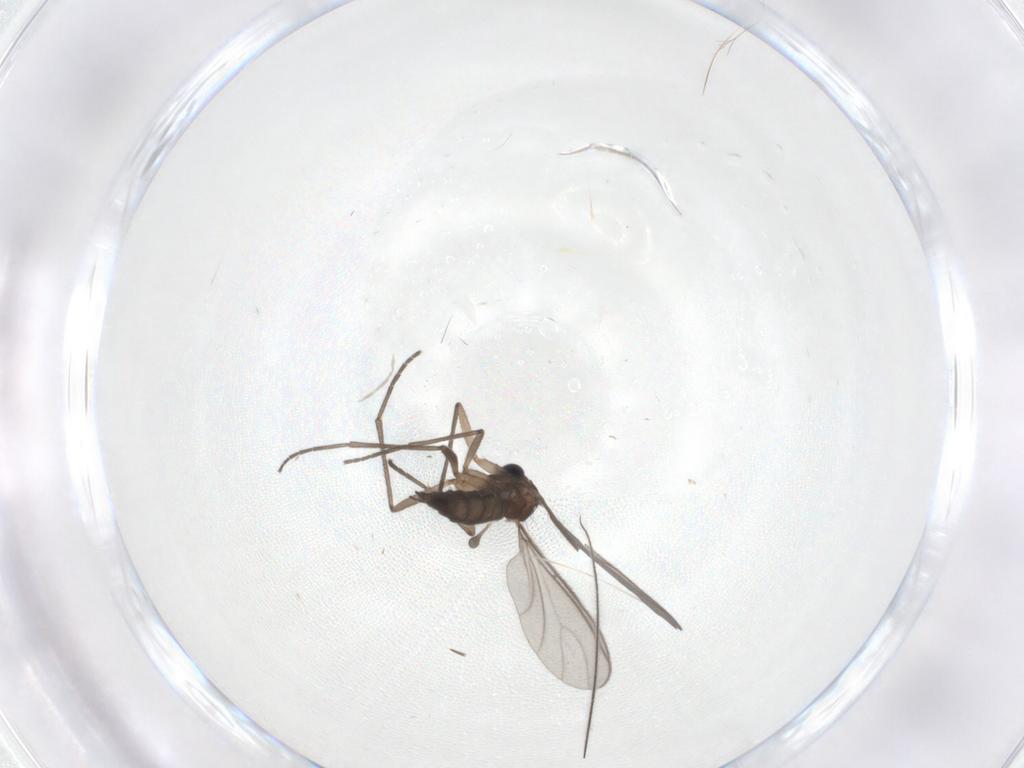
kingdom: Animalia
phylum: Arthropoda
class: Insecta
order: Diptera
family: Sciaridae
